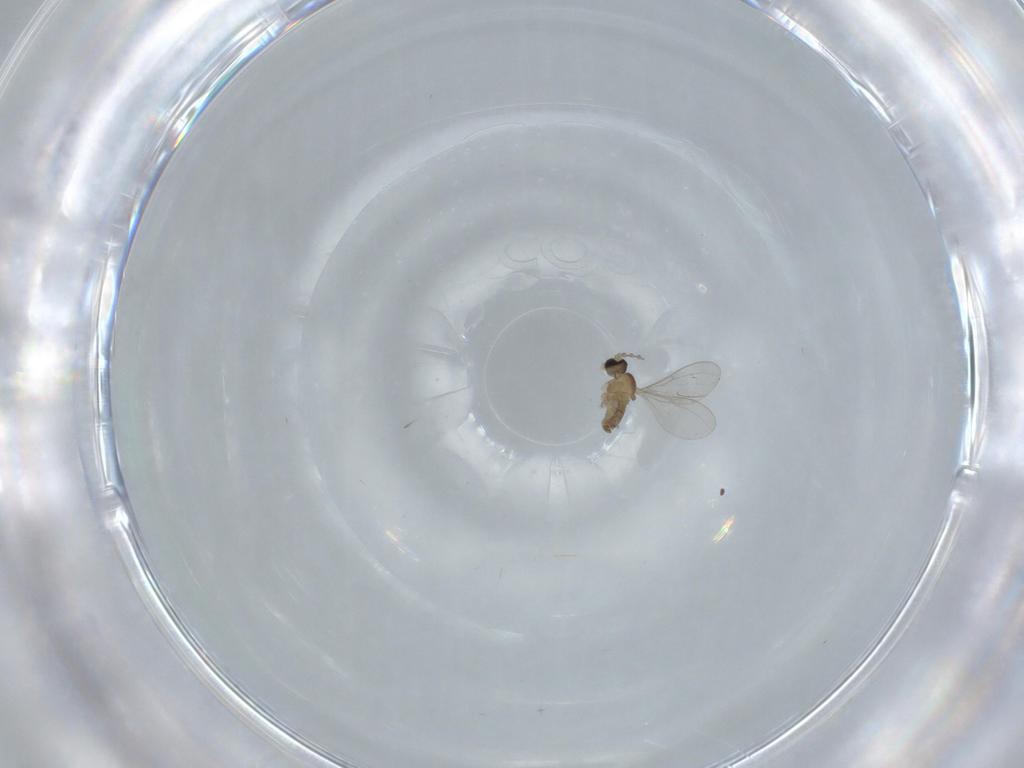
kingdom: Animalia
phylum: Arthropoda
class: Insecta
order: Diptera
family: Cecidomyiidae
